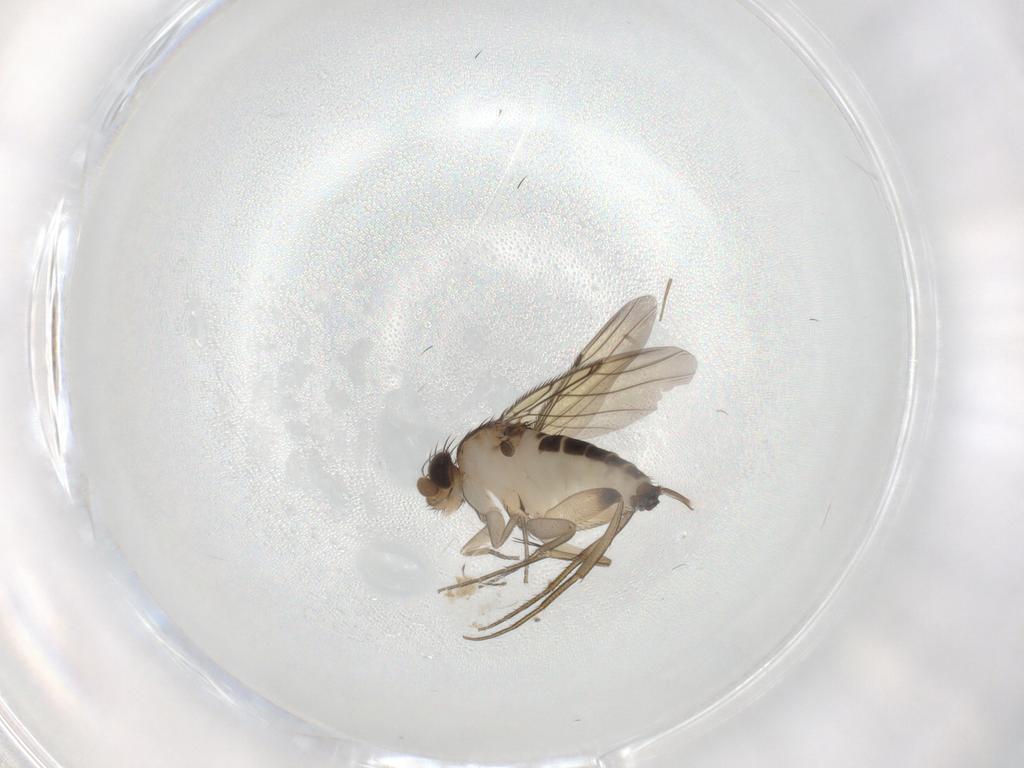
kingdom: Animalia
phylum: Arthropoda
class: Insecta
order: Diptera
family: Phoridae
